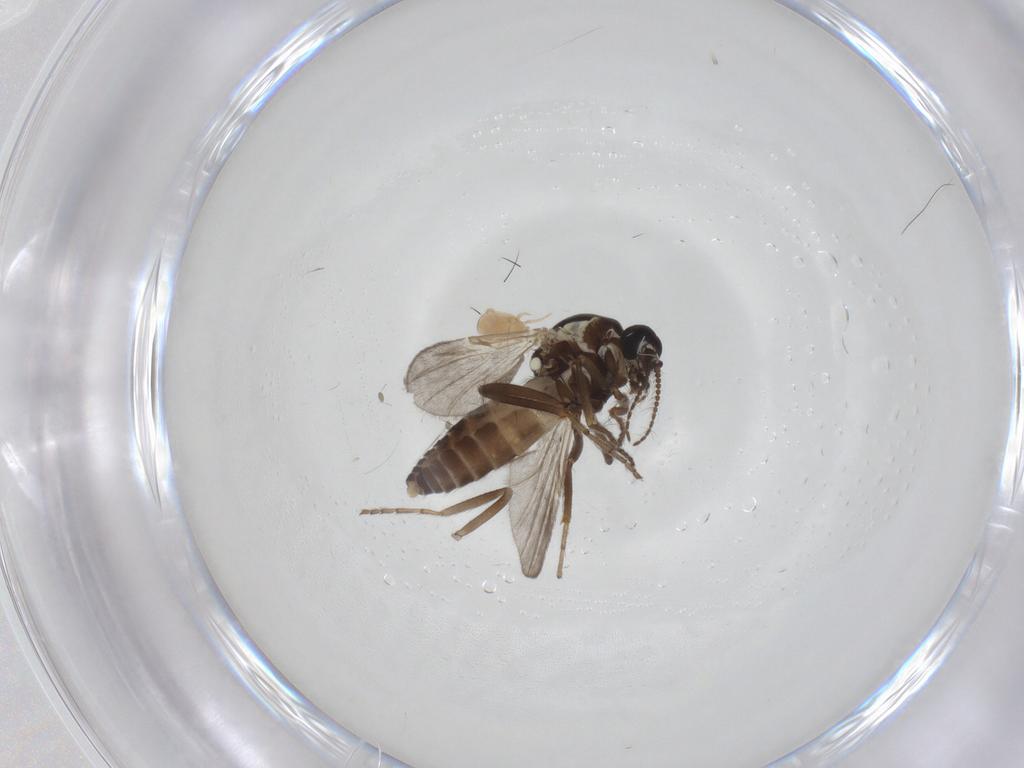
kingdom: Animalia
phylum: Arthropoda
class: Insecta
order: Diptera
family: Ceratopogonidae
